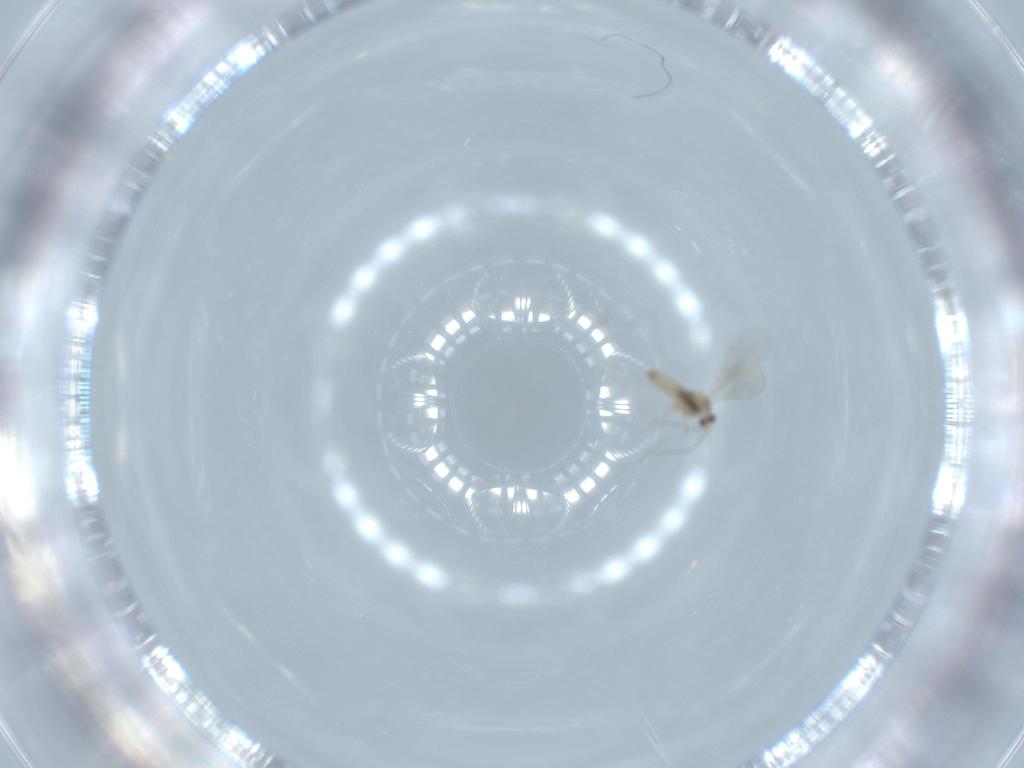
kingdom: Animalia
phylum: Arthropoda
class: Insecta
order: Diptera
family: Cecidomyiidae
